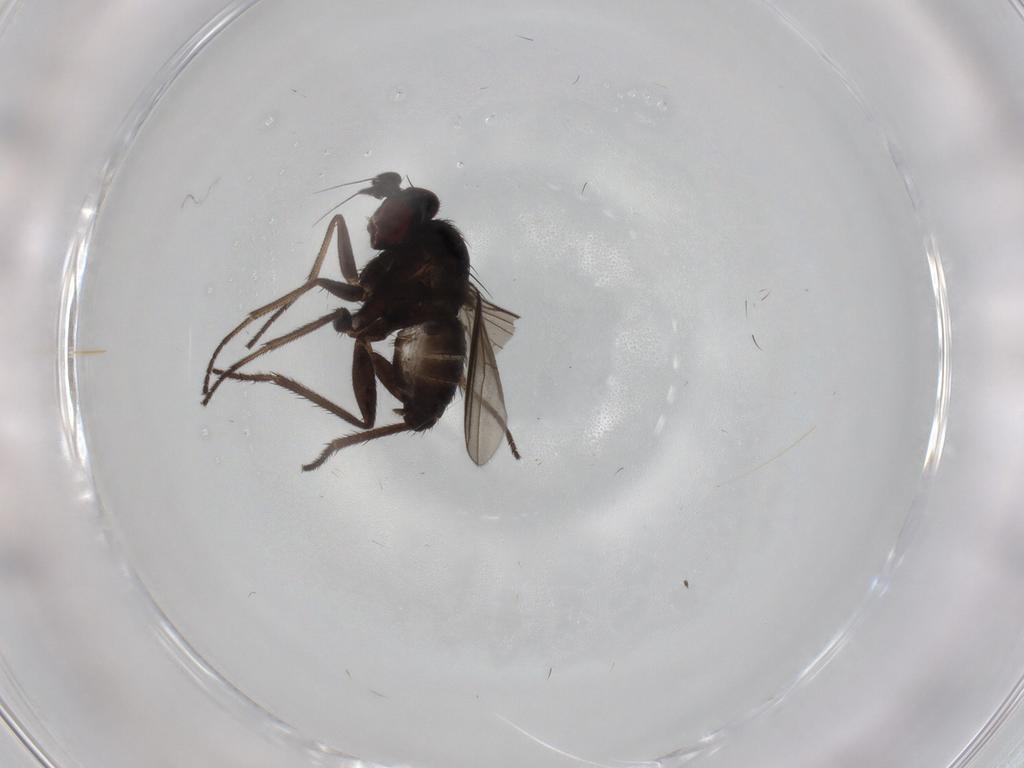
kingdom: Animalia
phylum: Arthropoda
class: Insecta
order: Diptera
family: Dolichopodidae
